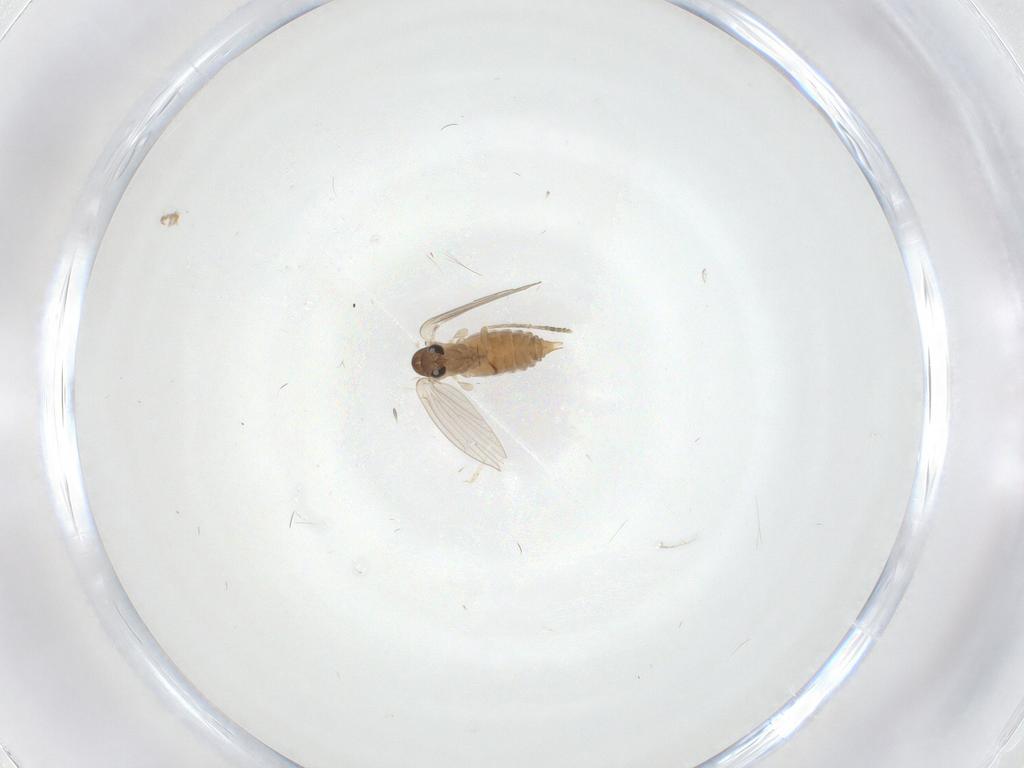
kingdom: Animalia
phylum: Arthropoda
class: Insecta
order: Diptera
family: Psychodidae
